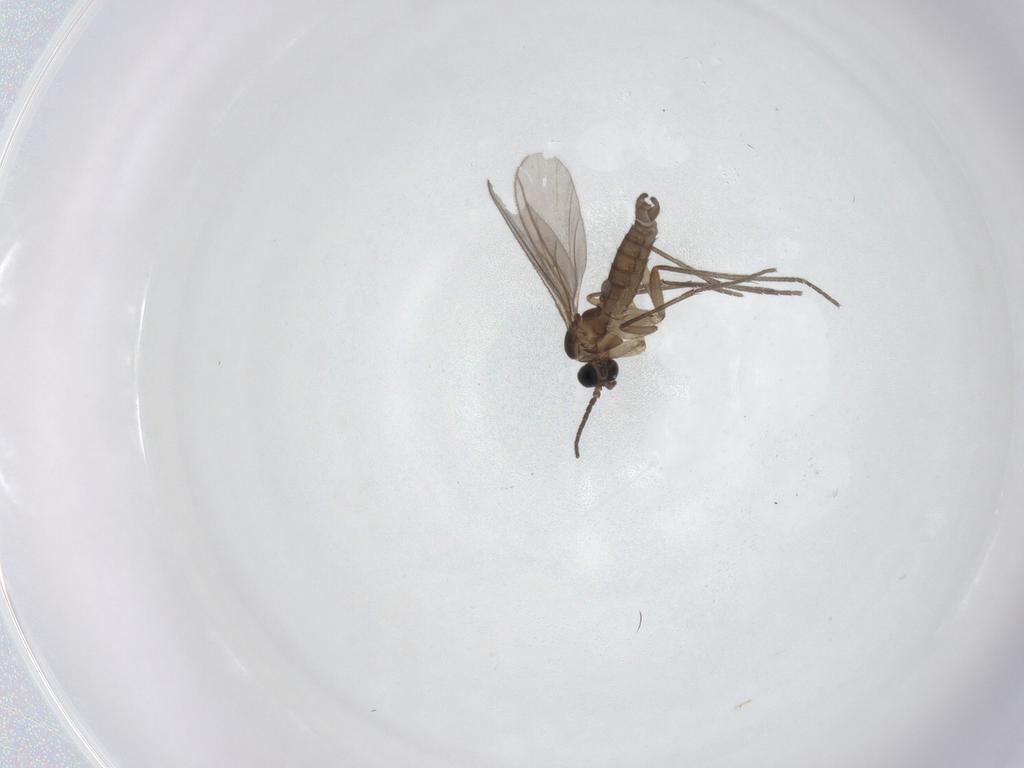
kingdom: Animalia
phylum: Arthropoda
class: Insecta
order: Diptera
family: Sciaridae
